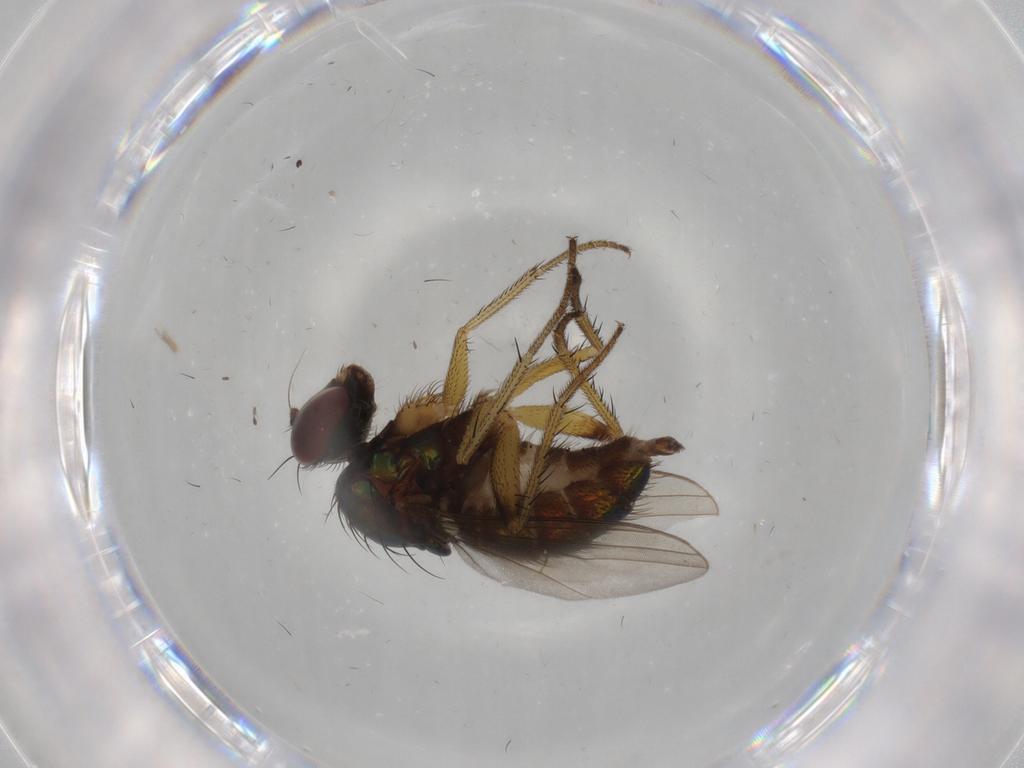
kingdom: Animalia
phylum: Arthropoda
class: Insecta
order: Diptera
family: Dolichopodidae
